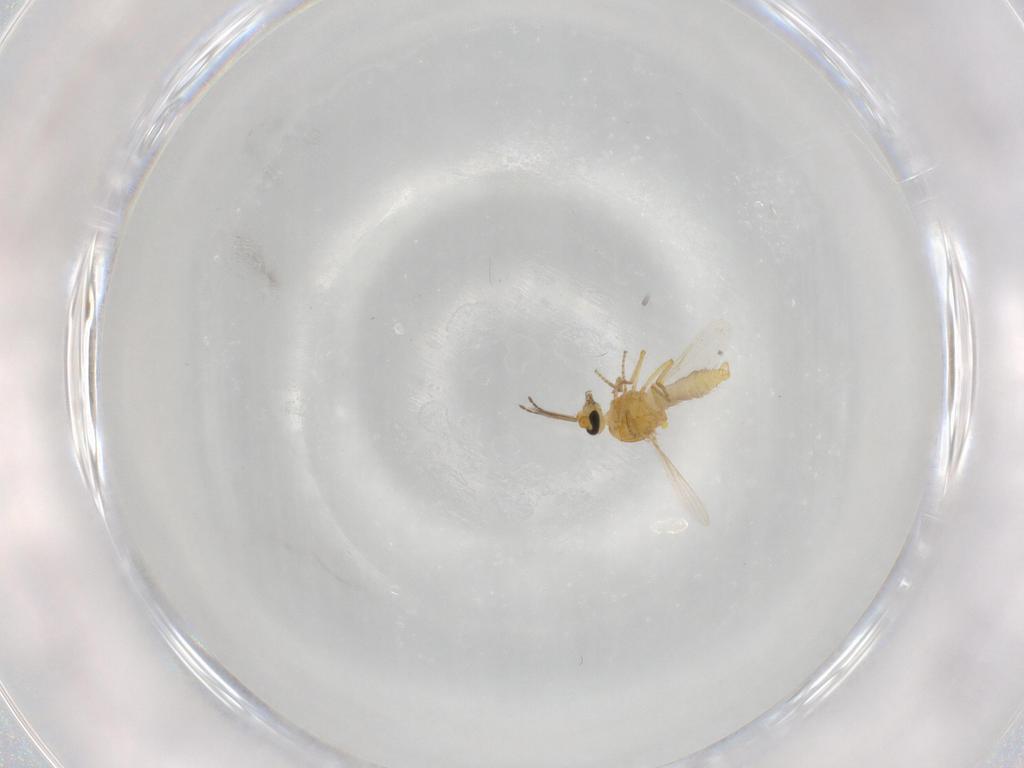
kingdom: Animalia
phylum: Arthropoda
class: Insecta
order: Diptera
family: Ceratopogonidae
